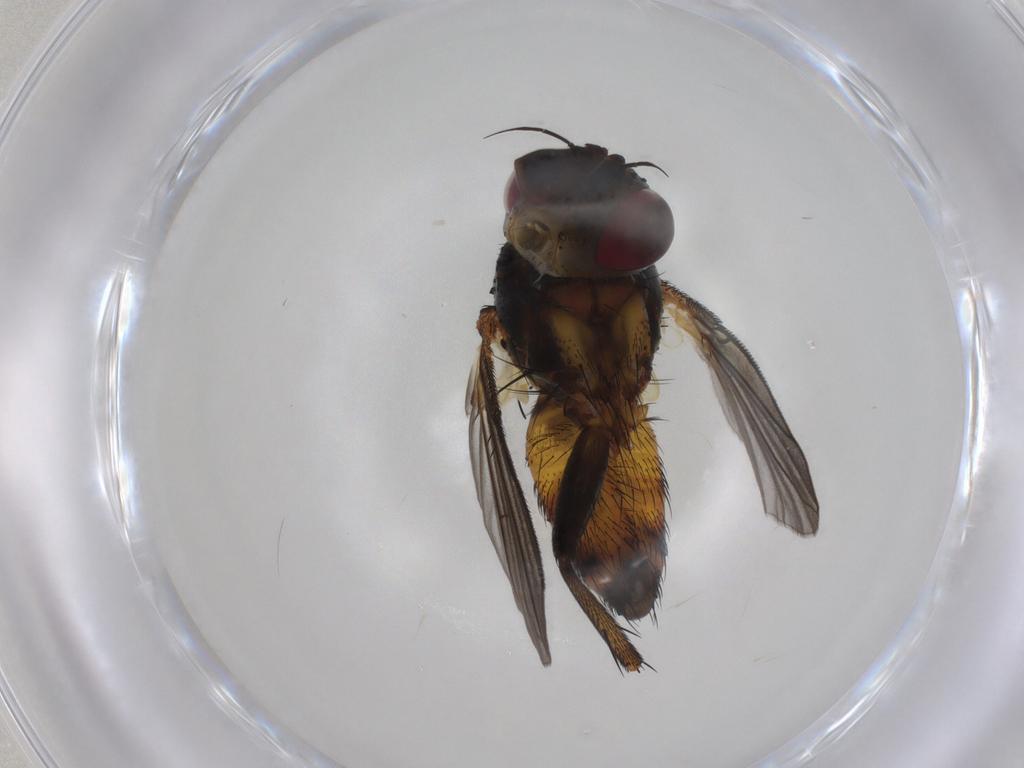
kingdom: Animalia
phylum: Arthropoda
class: Insecta
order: Diptera
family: Tachinidae
